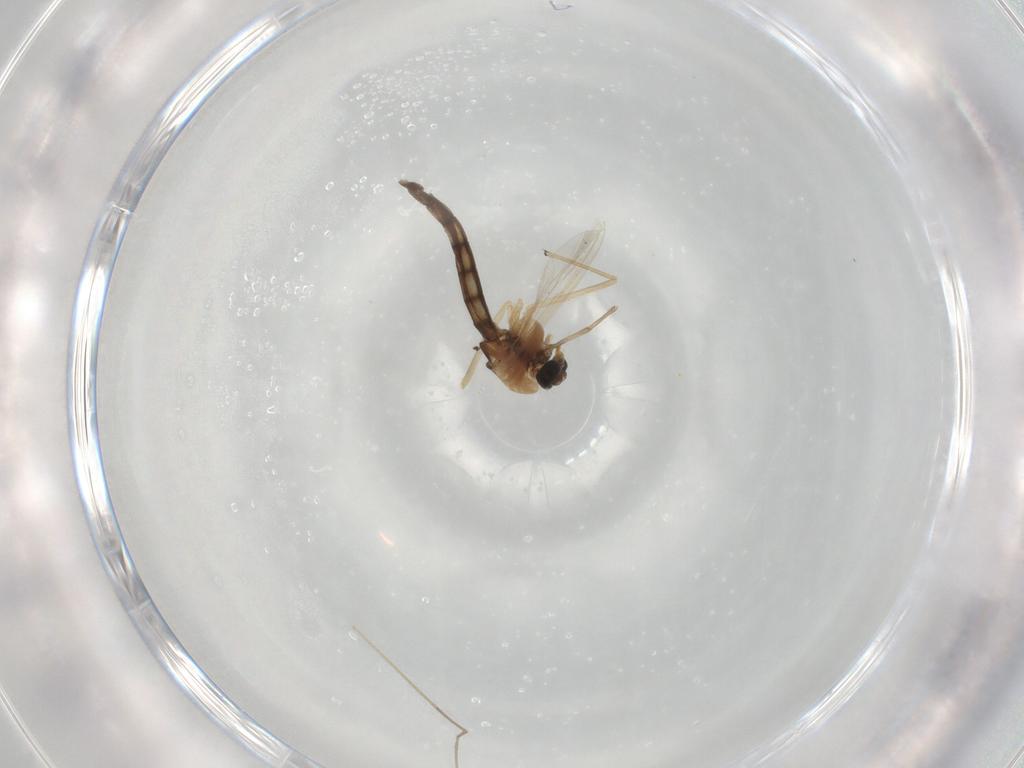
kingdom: Animalia
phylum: Arthropoda
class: Insecta
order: Diptera
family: Chironomidae
